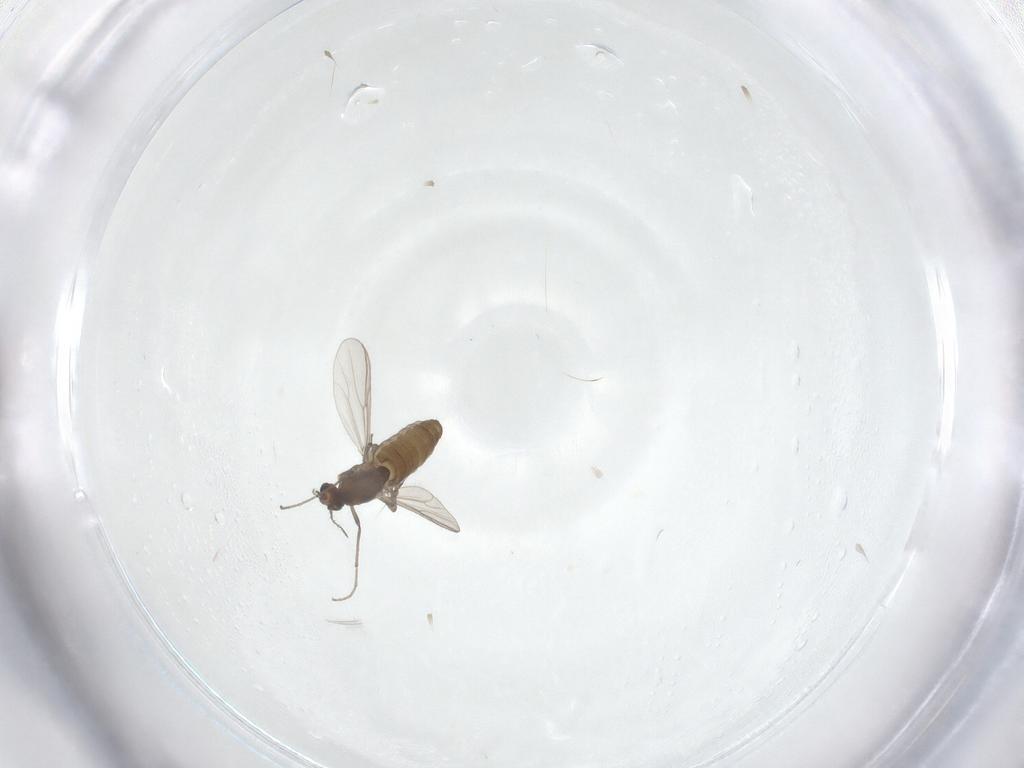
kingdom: Animalia
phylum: Arthropoda
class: Insecta
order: Diptera
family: Chironomidae
